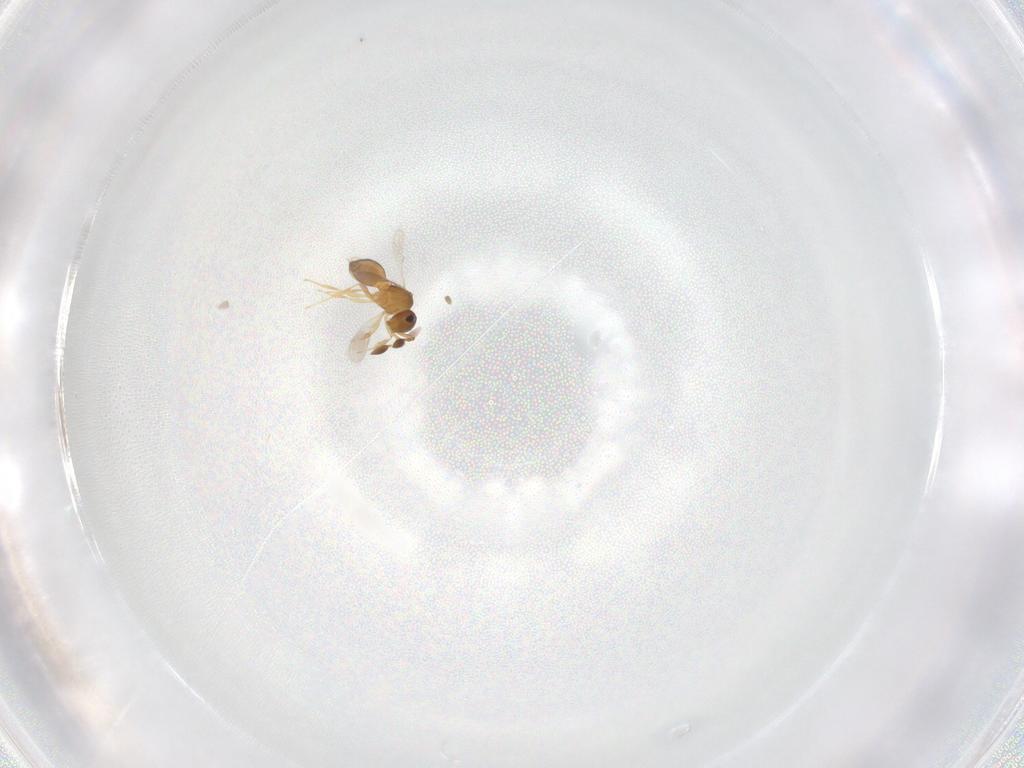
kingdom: Animalia
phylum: Arthropoda
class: Insecta
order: Hymenoptera
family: Scelionidae
